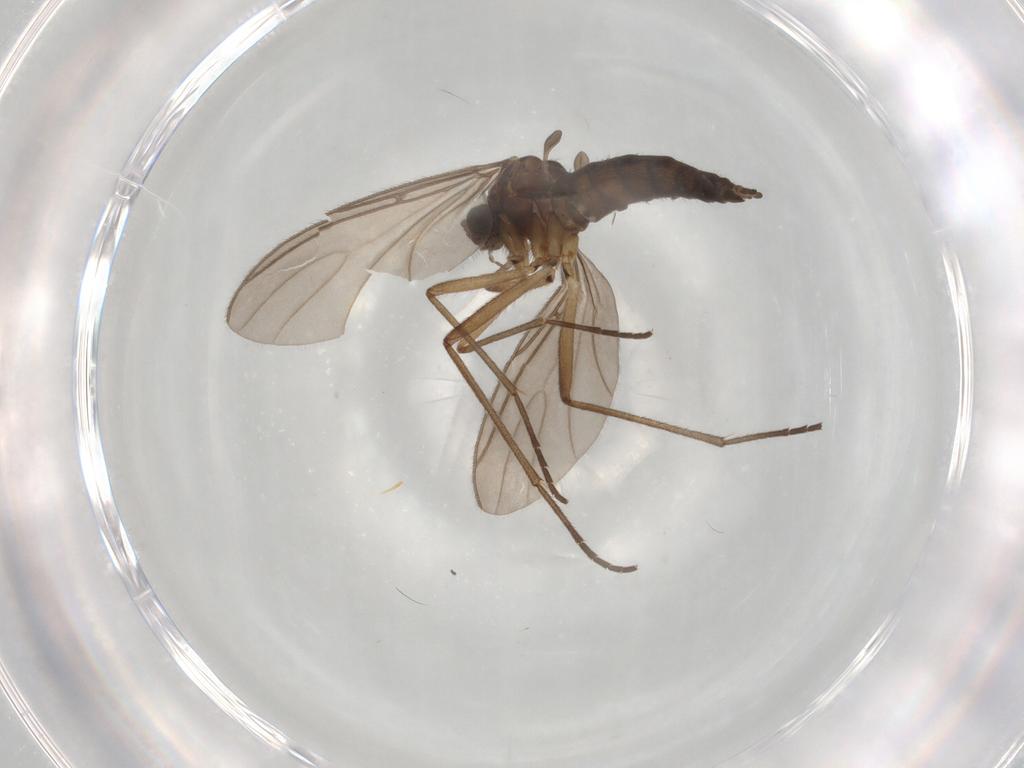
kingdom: Animalia
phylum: Arthropoda
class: Insecta
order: Diptera
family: Sciaridae
